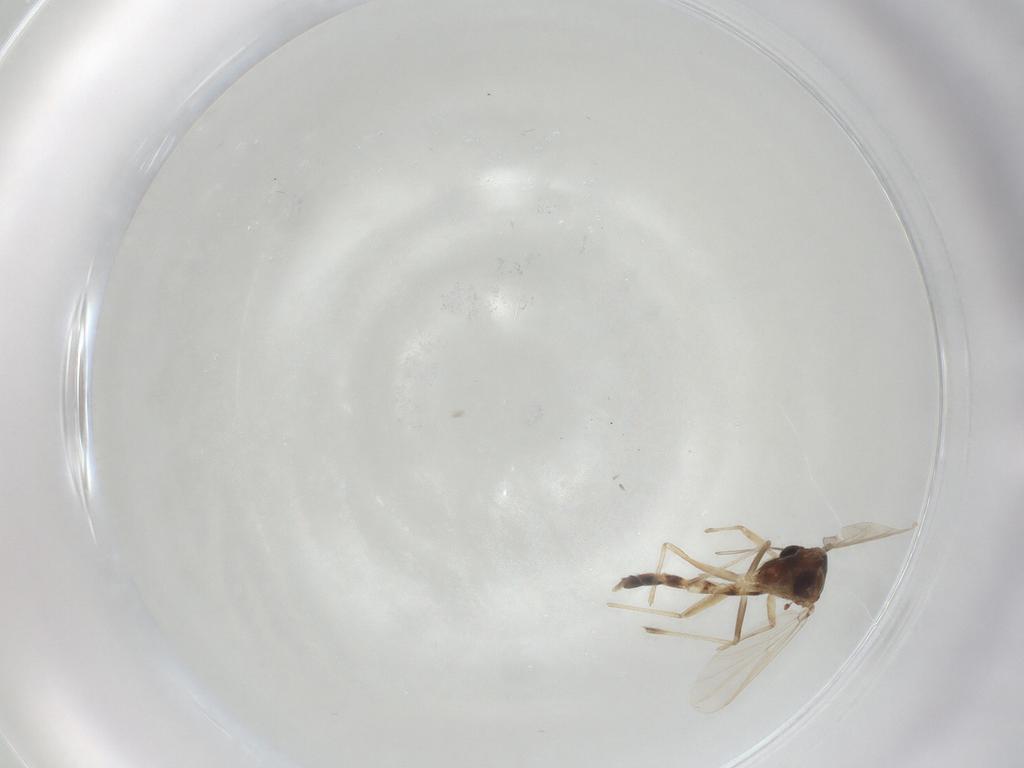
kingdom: Animalia
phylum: Arthropoda
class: Insecta
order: Diptera
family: Chironomidae
